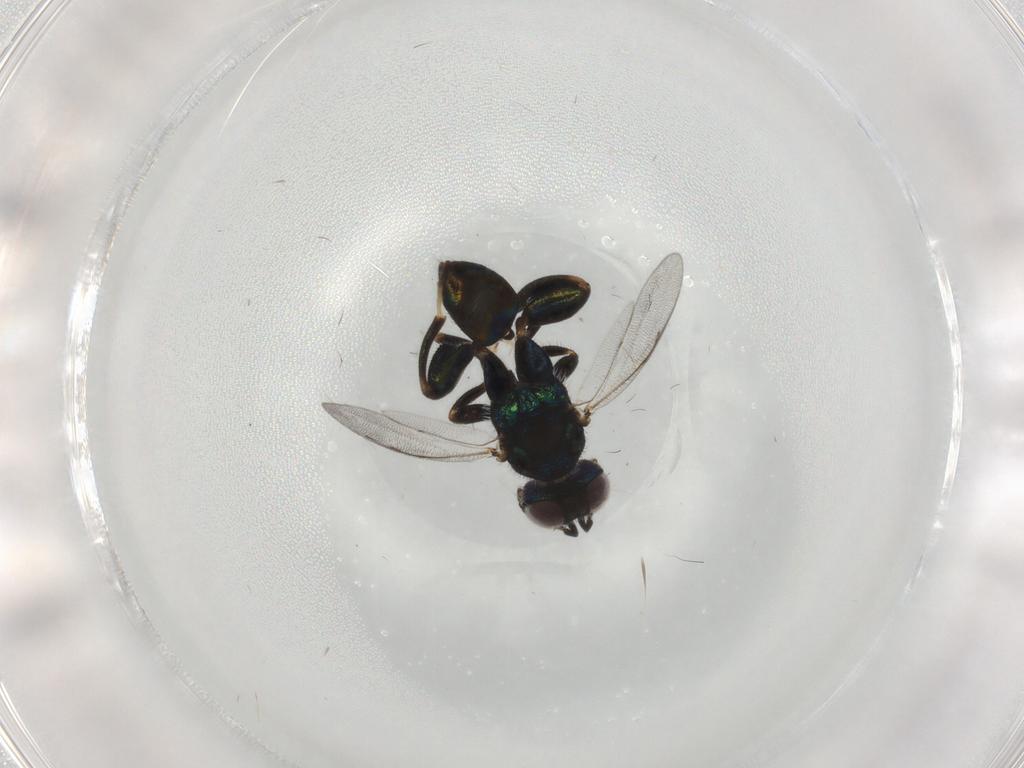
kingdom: Animalia
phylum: Arthropoda
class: Insecta
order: Hymenoptera
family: Pteromalidae
